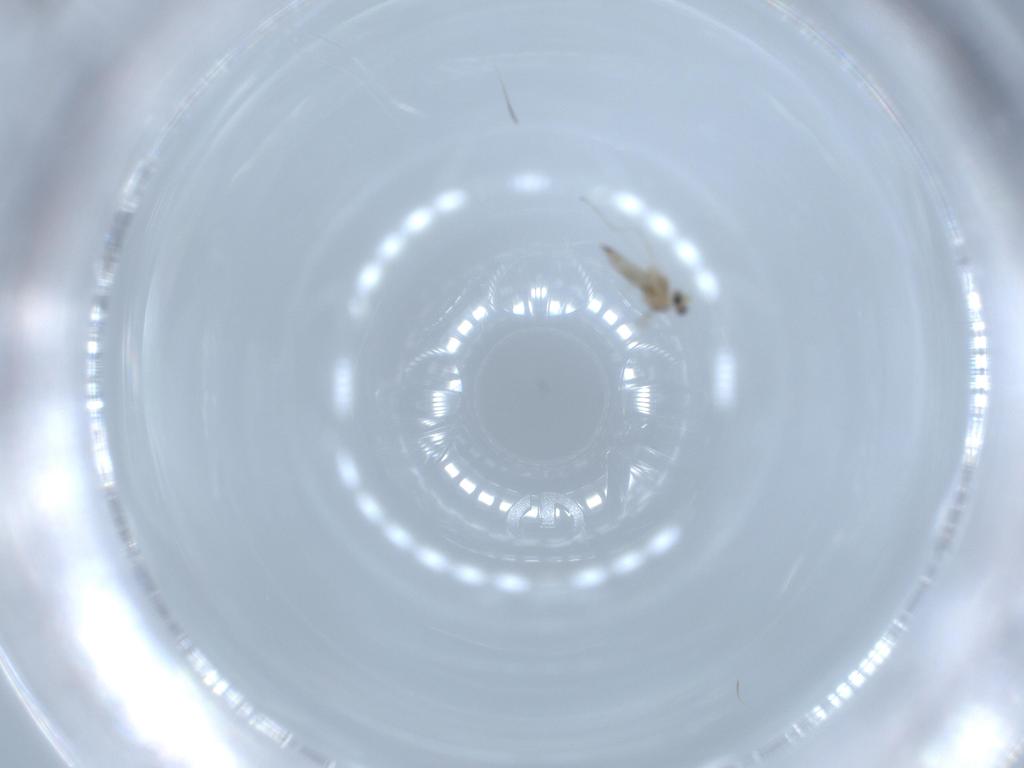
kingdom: Animalia
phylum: Arthropoda
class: Insecta
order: Diptera
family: Cecidomyiidae
